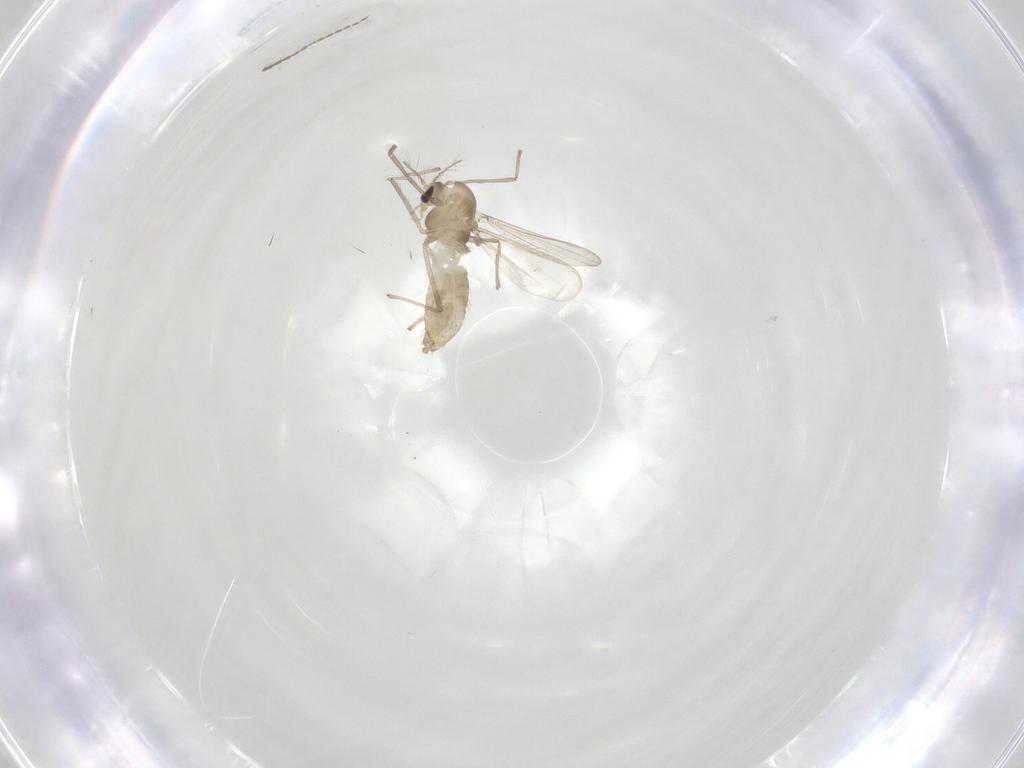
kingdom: Animalia
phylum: Arthropoda
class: Insecta
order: Diptera
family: Cecidomyiidae
